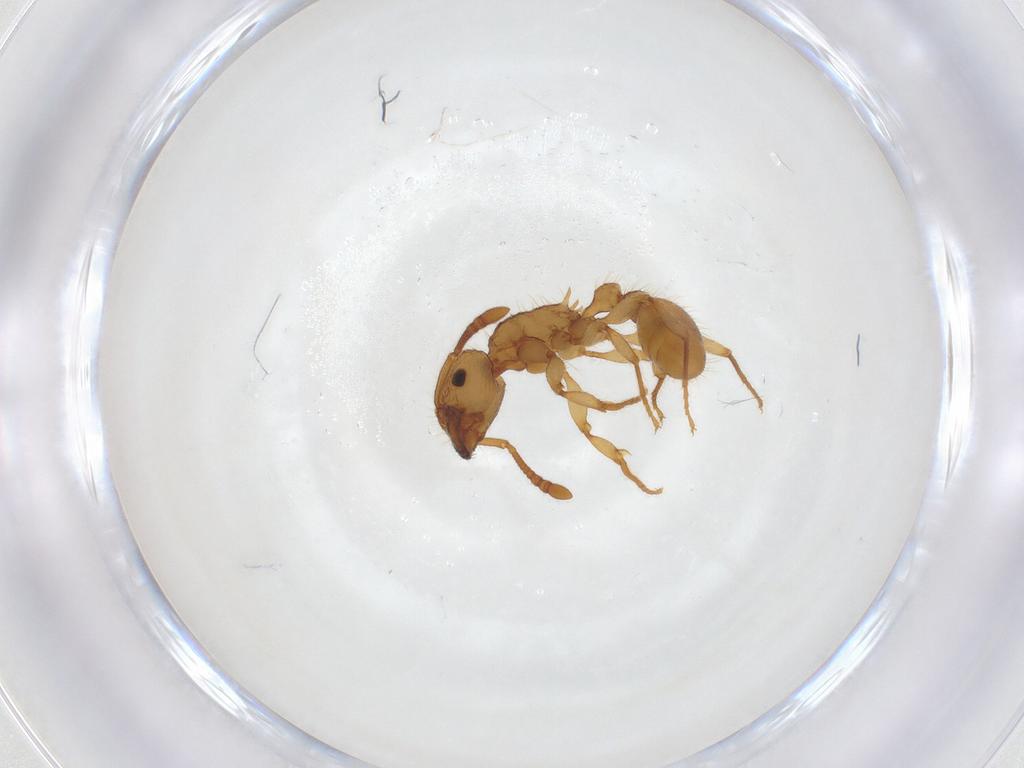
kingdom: Animalia
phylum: Arthropoda
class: Insecta
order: Hymenoptera
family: Formicidae
